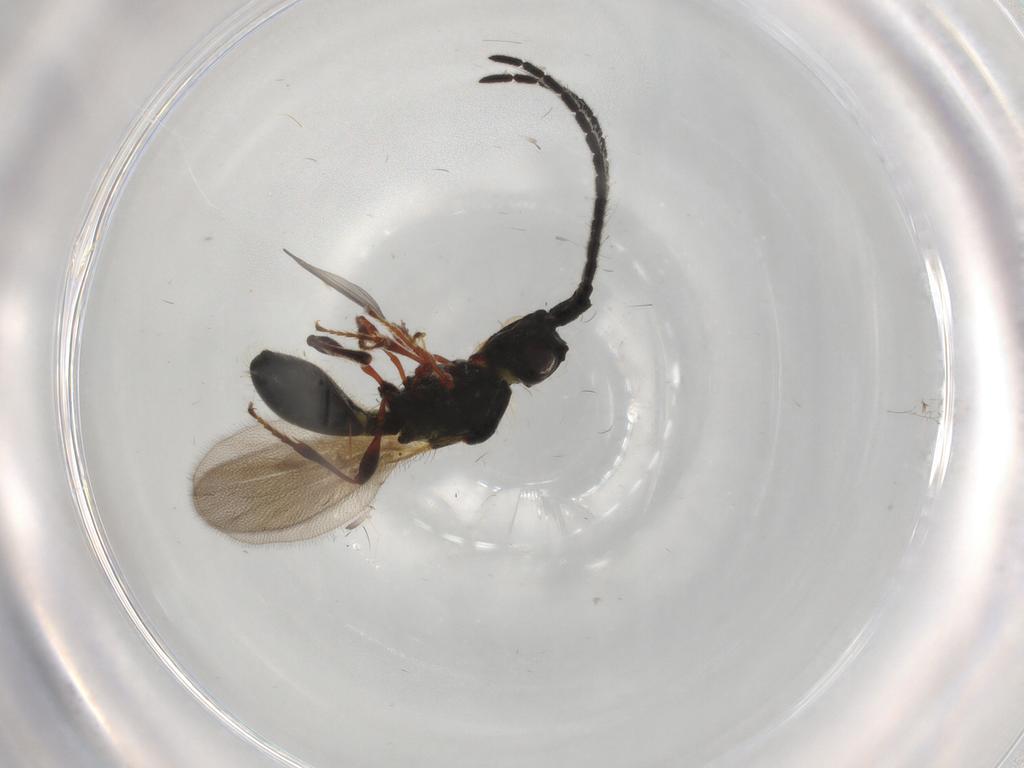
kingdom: Animalia
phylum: Arthropoda
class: Insecta
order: Hymenoptera
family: Diapriidae
